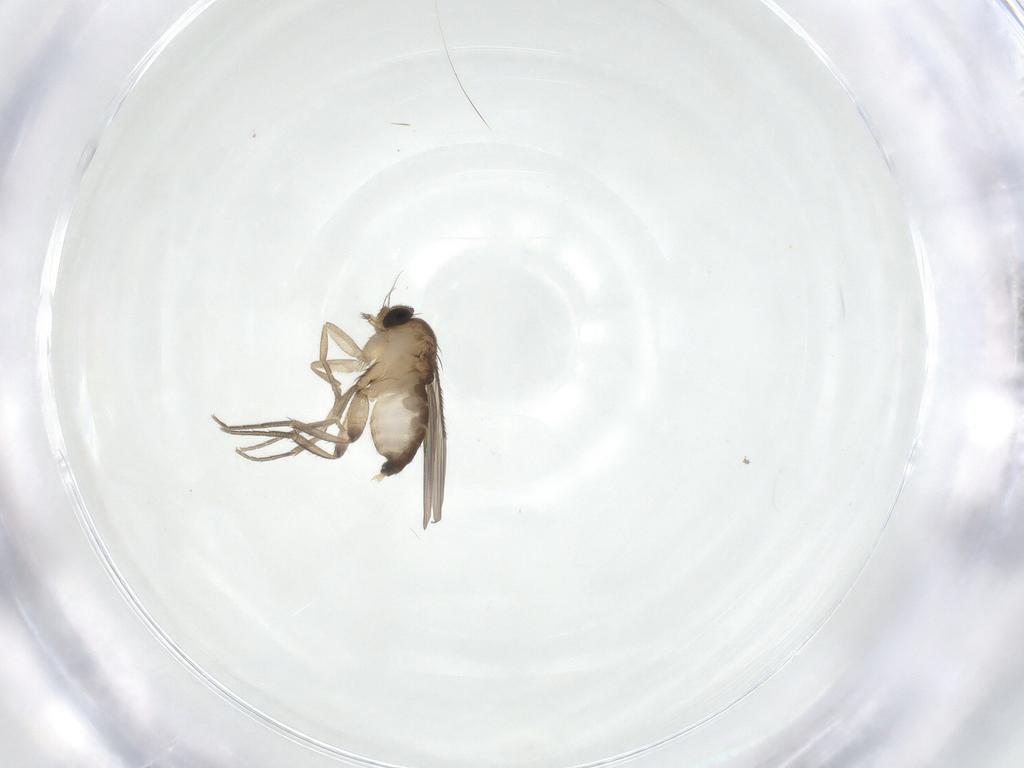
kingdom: Animalia
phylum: Arthropoda
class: Insecta
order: Diptera
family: Phoridae
